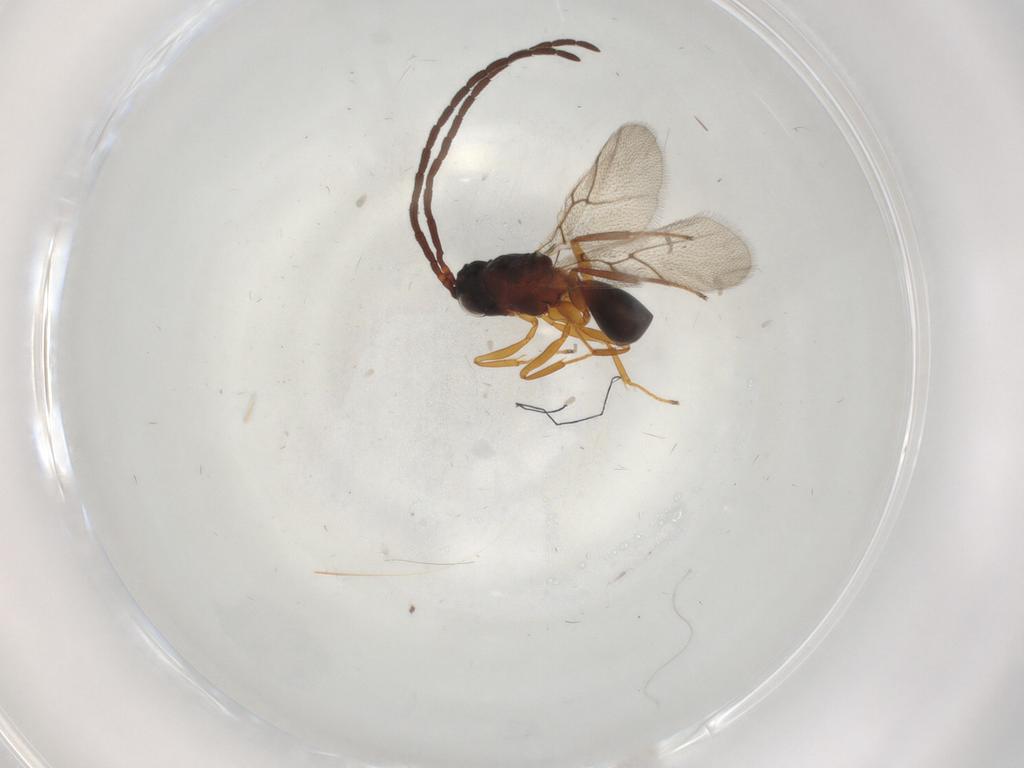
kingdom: Animalia
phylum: Arthropoda
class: Insecta
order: Hymenoptera
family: Figitidae
